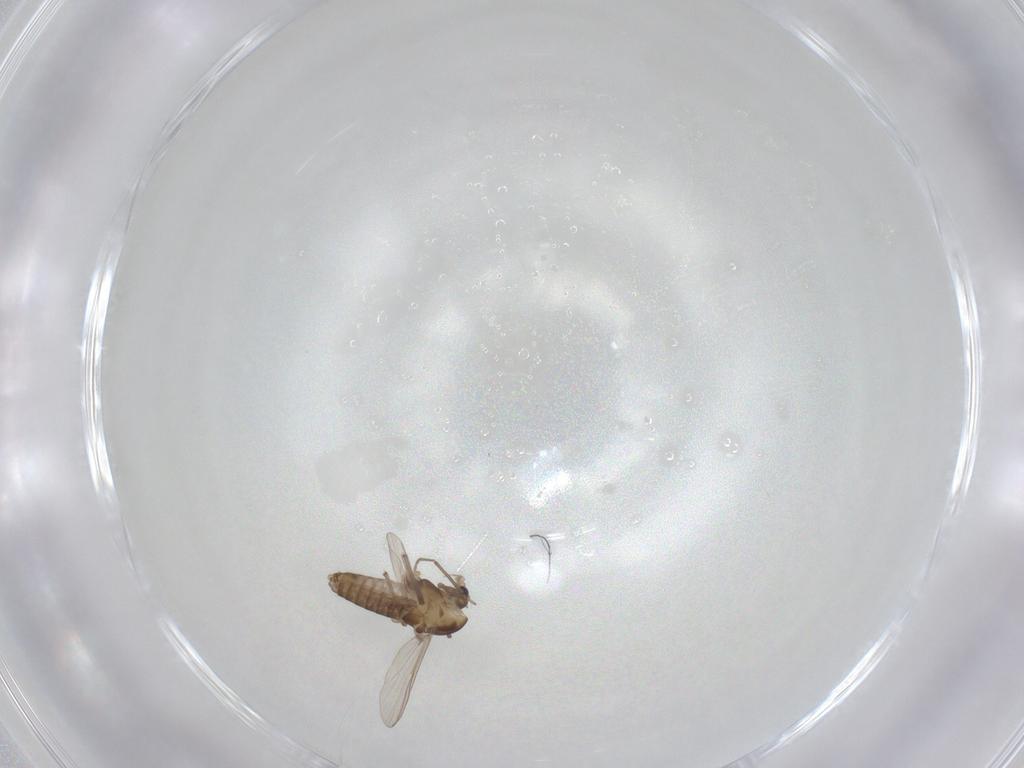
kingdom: Animalia
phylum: Arthropoda
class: Insecta
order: Diptera
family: Chironomidae
